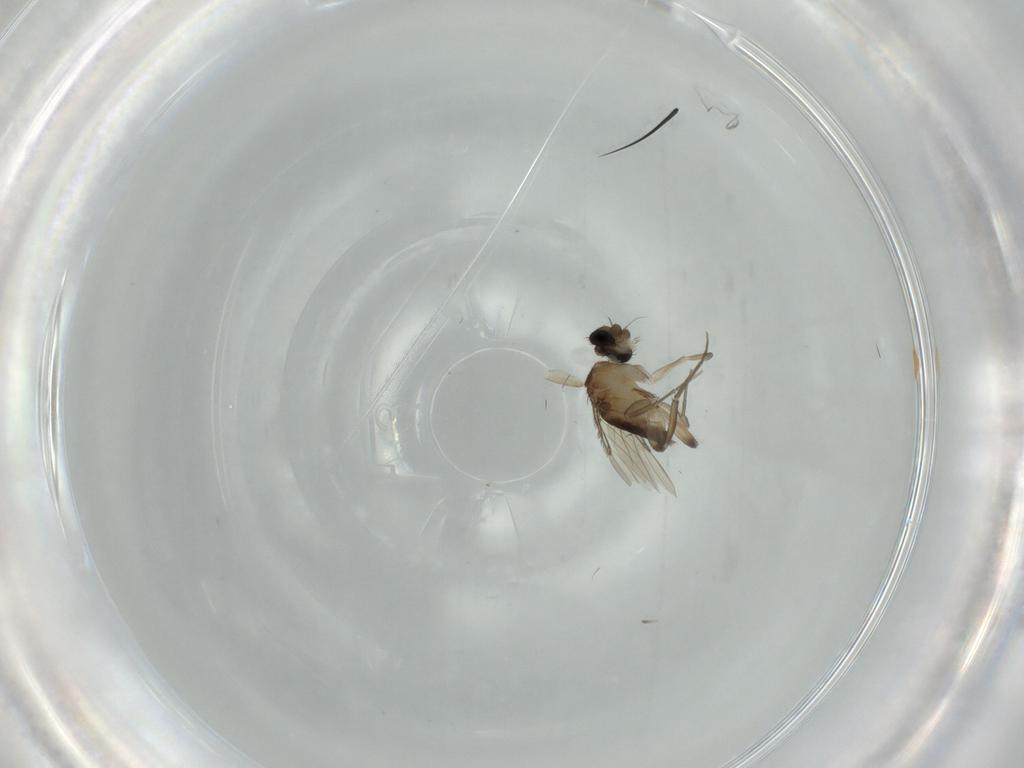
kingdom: Animalia
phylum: Arthropoda
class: Insecta
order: Diptera
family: Phoridae
